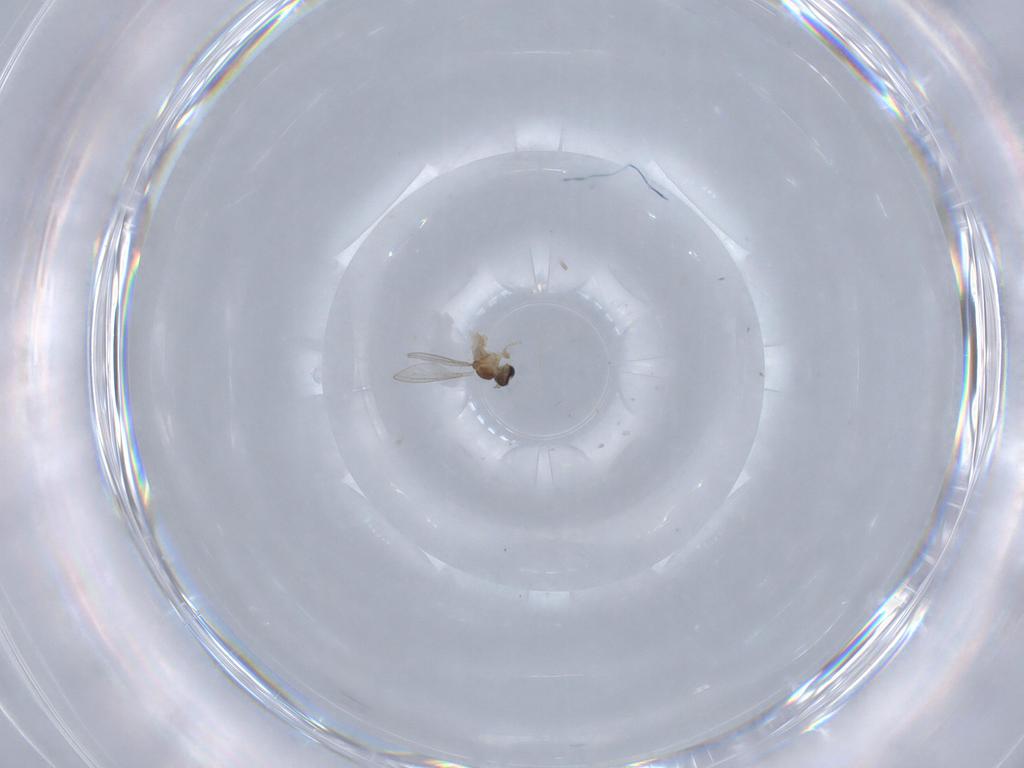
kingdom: Animalia
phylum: Arthropoda
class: Insecta
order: Diptera
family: Cecidomyiidae
